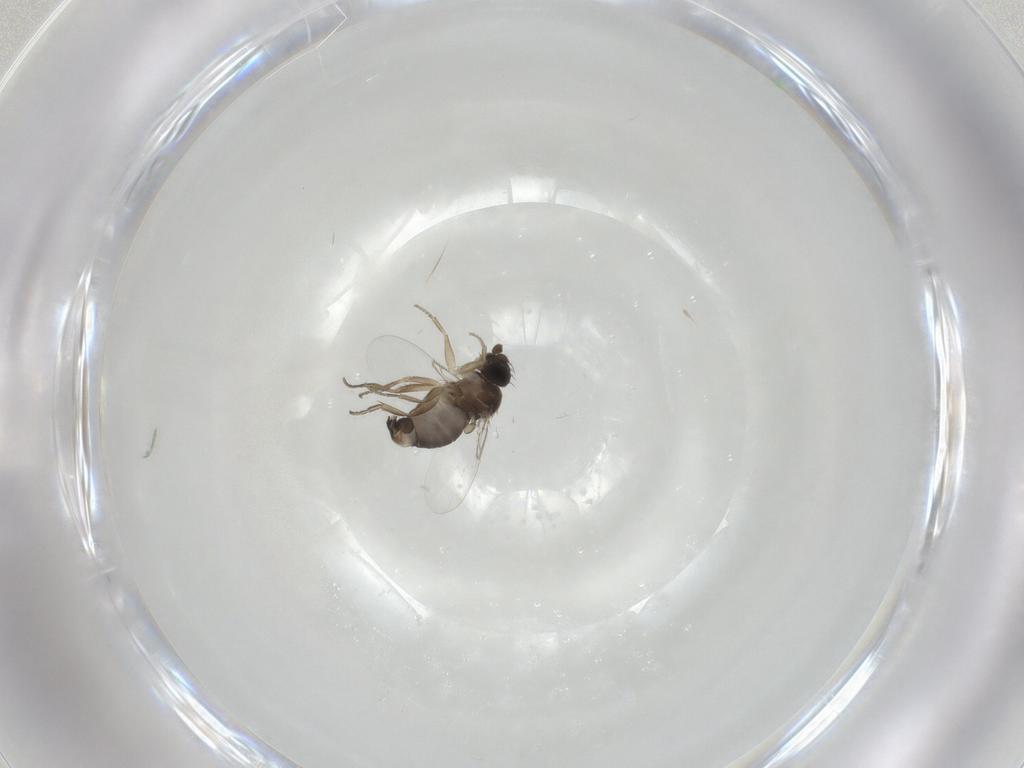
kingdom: Animalia
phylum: Arthropoda
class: Insecta
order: Diptera
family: Phoridae
